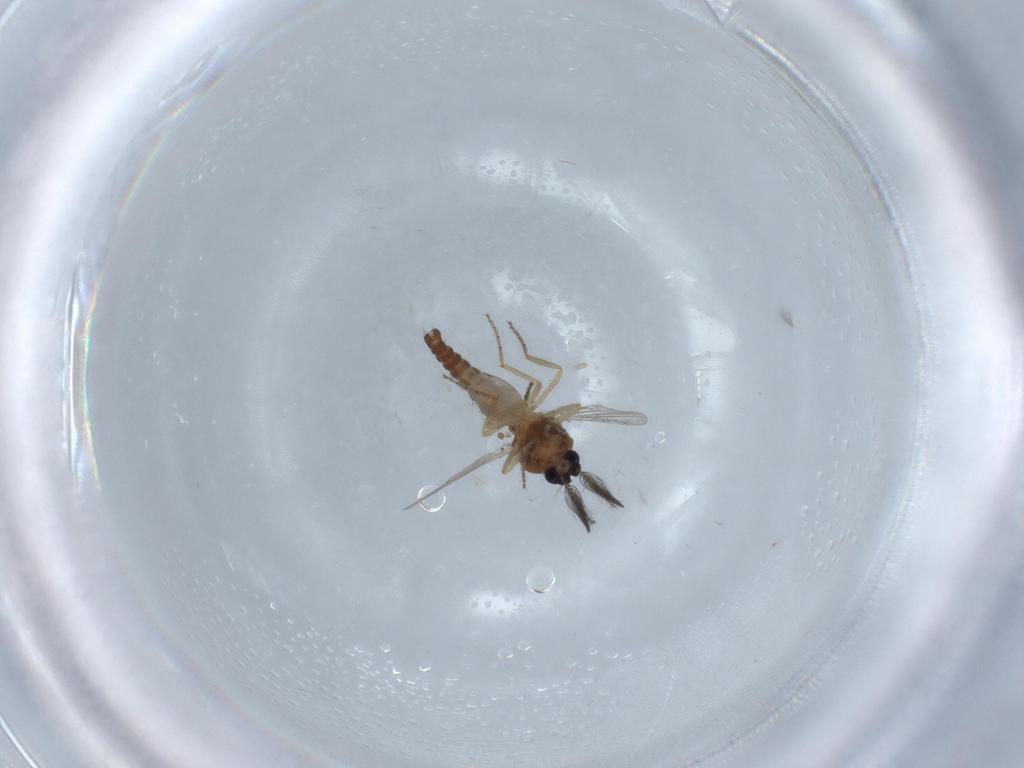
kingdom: Animalia
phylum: Arthropoda
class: Insecta
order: Diptera
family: Ceratopogonidae
